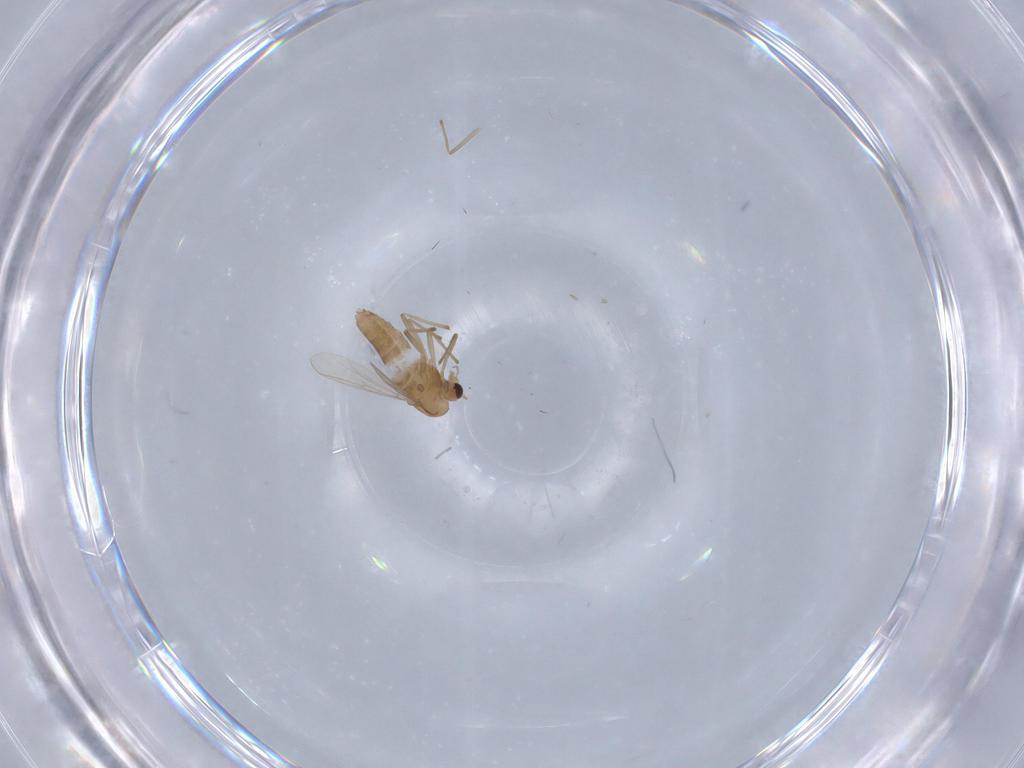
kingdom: Animalia
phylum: Arthropoda
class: Insecta
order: Diptera
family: Chironomidae
